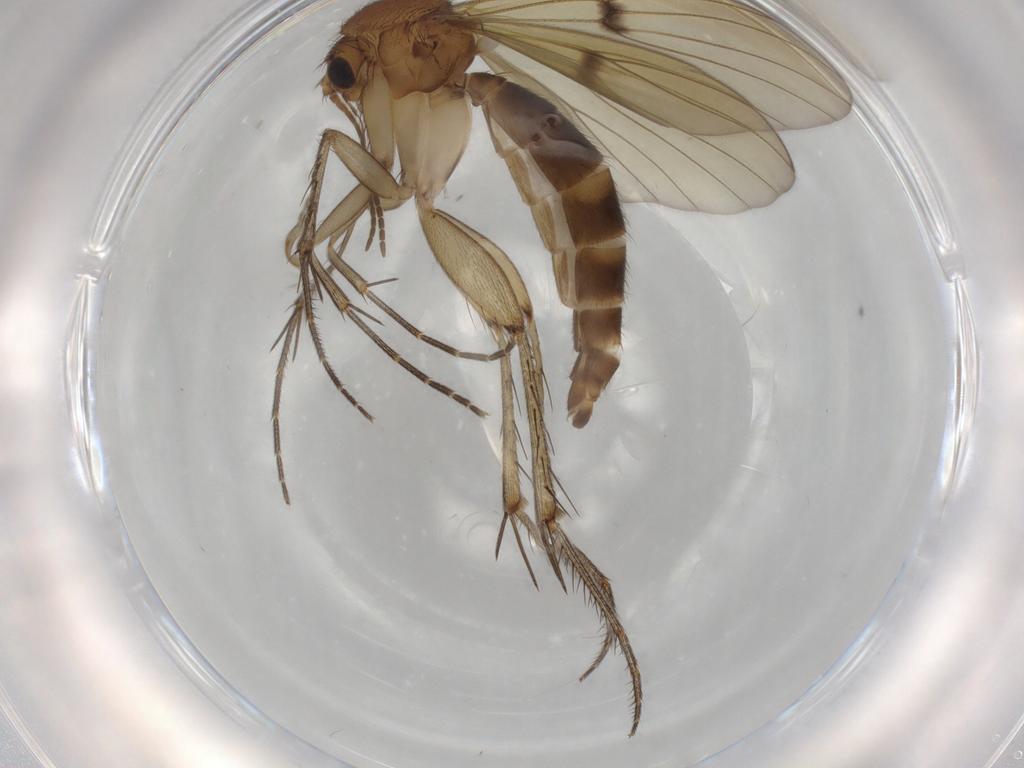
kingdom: Animalia
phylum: Arthropoda
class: Insecta
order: Diptera
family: Mycetophilidae
